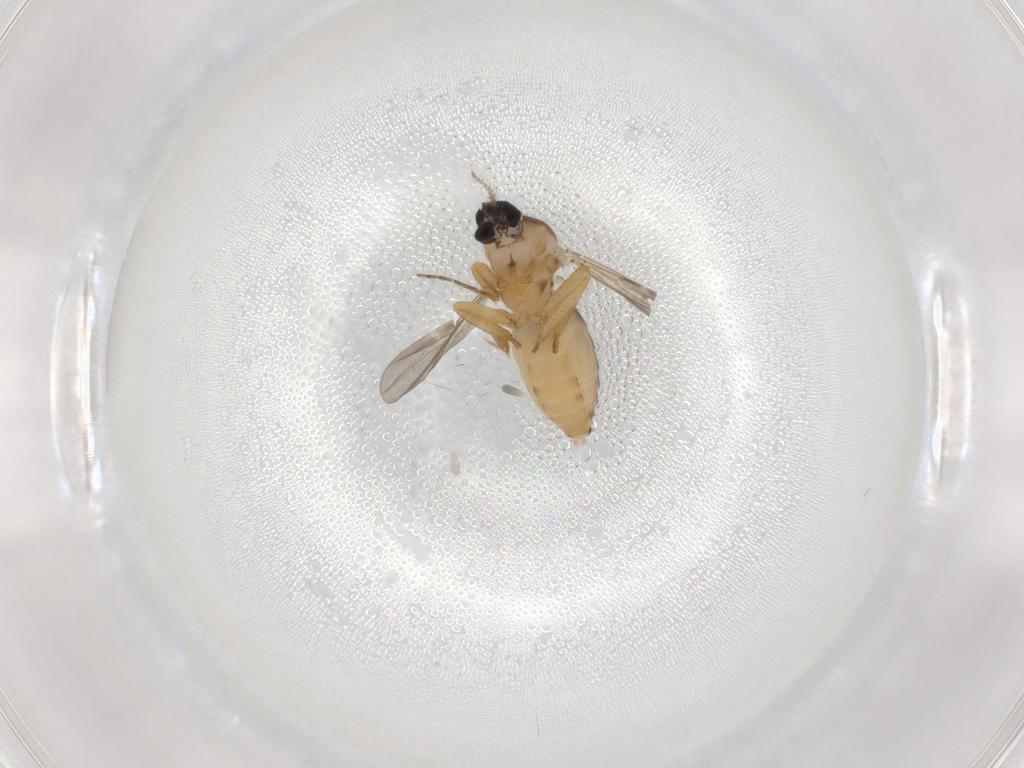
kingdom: Animalia
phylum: Arthropoda
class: Insecta
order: Diptera
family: Ceratopogonidae
